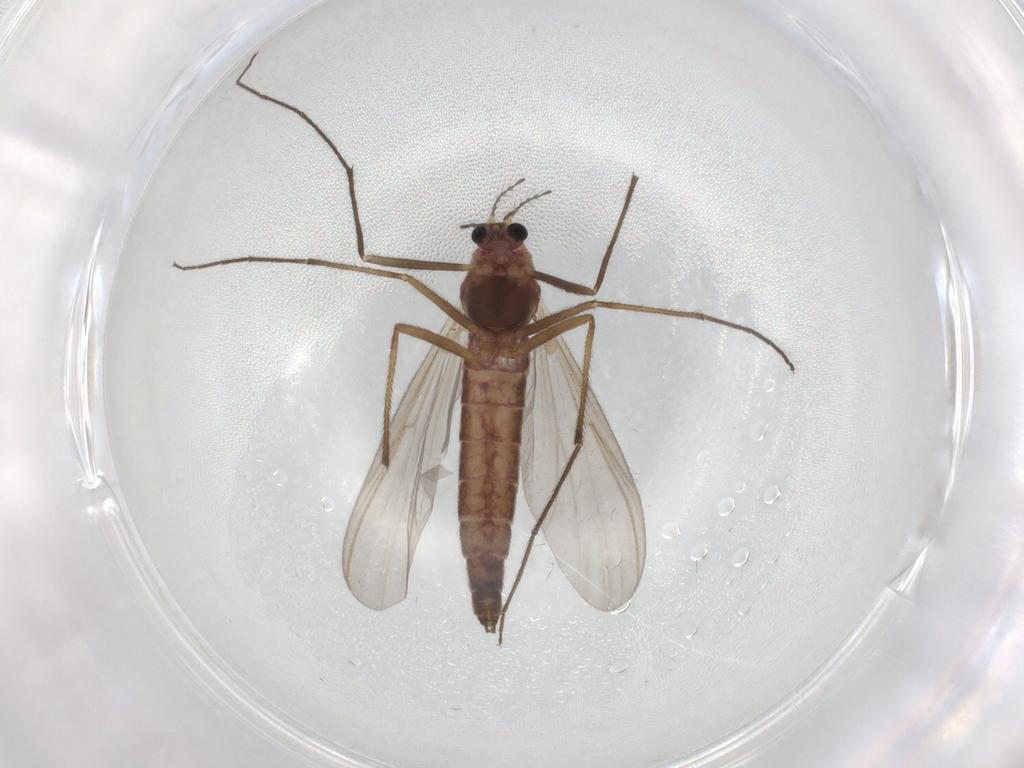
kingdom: Animalia
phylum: Arthropoda
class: Insecta
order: Diptera
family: Chironomidae
